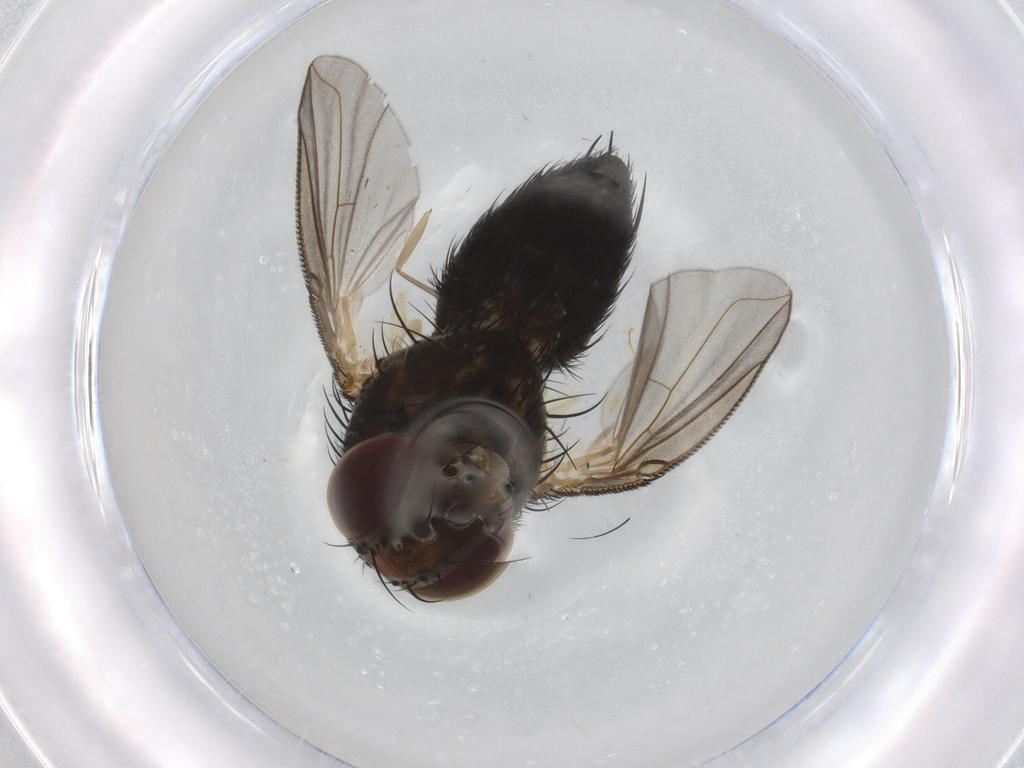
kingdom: Animalia
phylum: Arthropoda
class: Insecta
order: Diptera
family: Tachinidae
